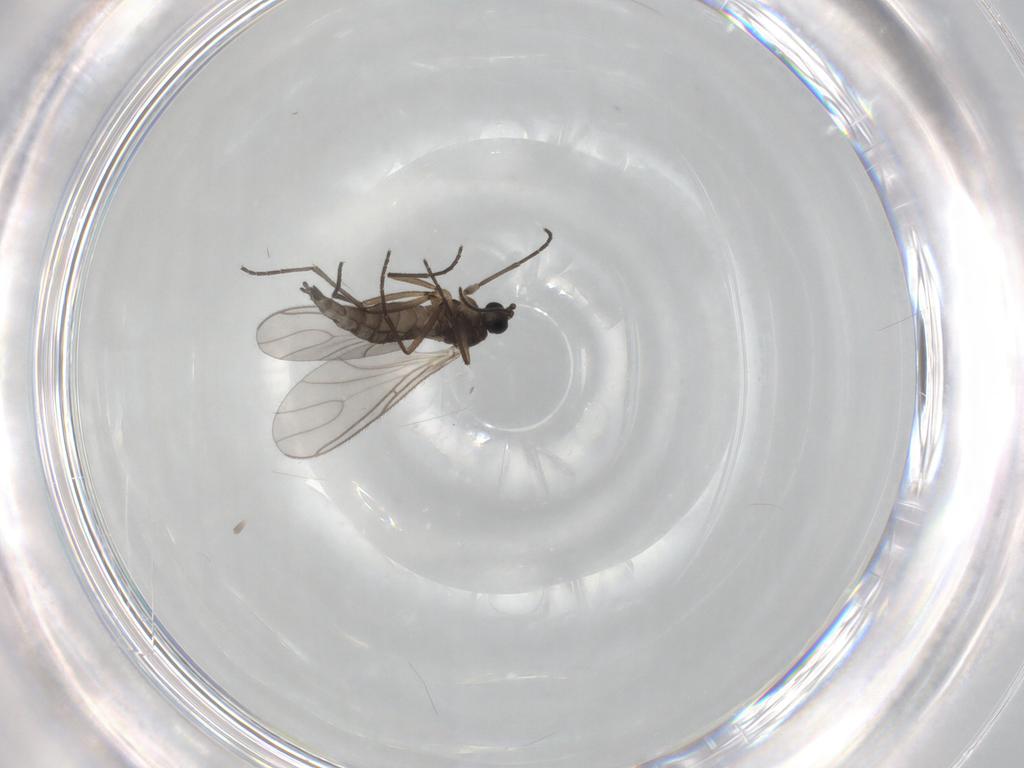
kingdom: Animalia
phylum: Arthropoda
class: Insecta
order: Diptera
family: Sciaridae
